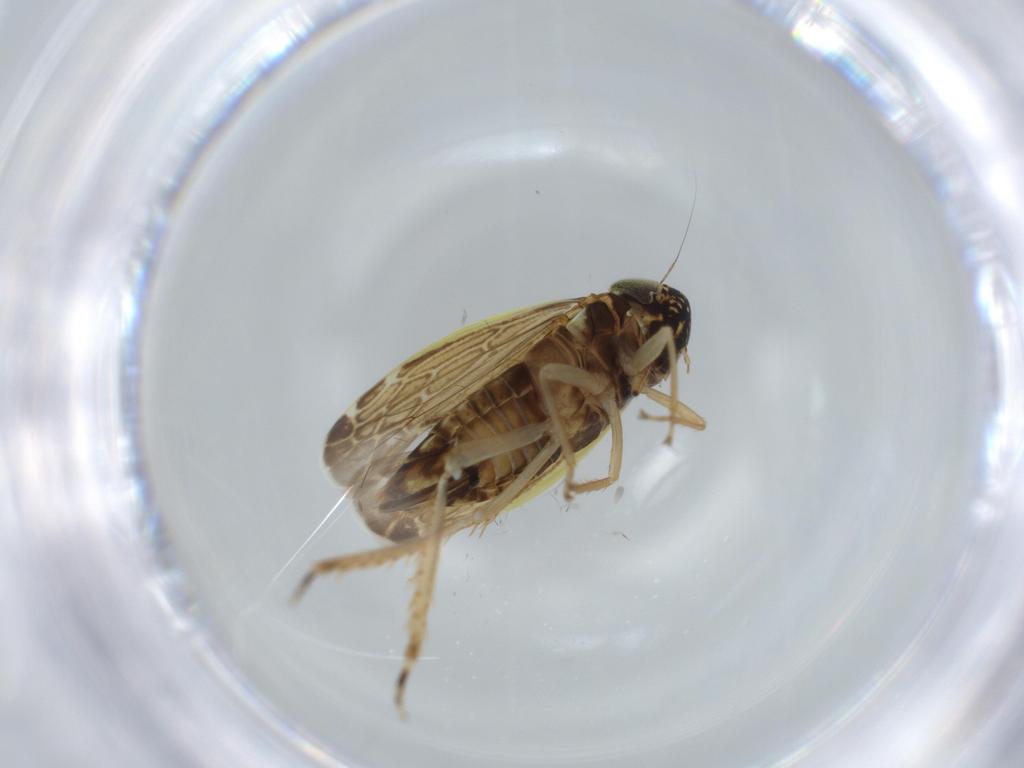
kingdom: Animalia
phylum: Arthropoda
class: Insecta
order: Hemiptera
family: Cicadellidae
